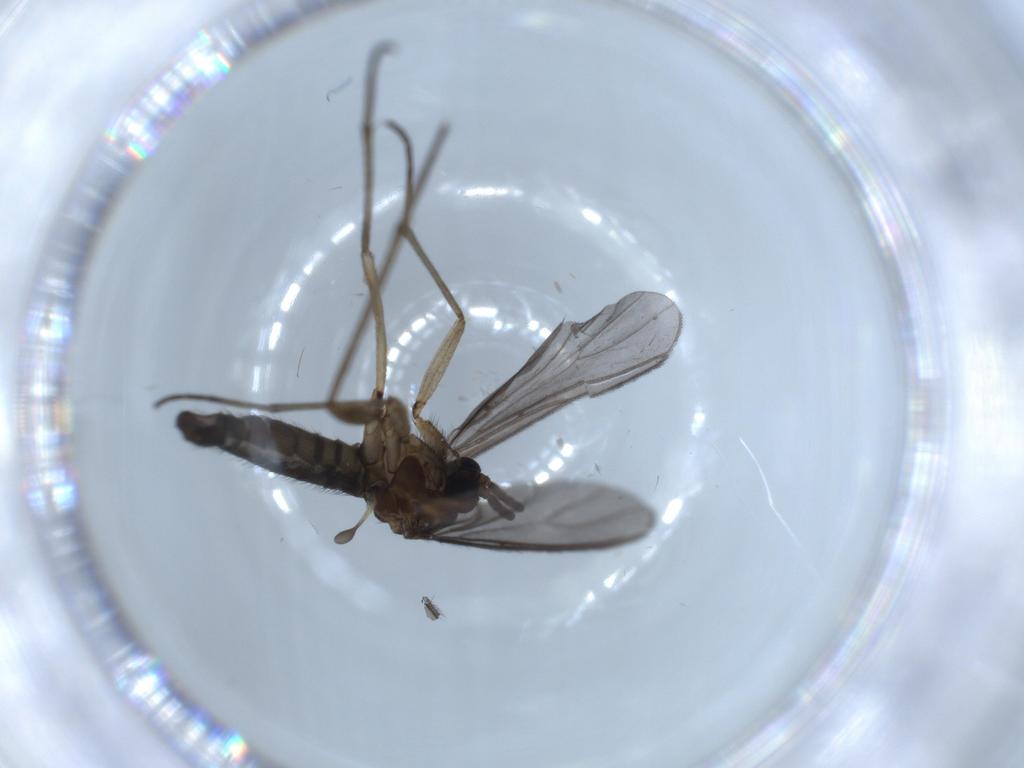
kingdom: Animalia
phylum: Arthropoda
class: Insecta
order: Diptera
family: Sciaridae
